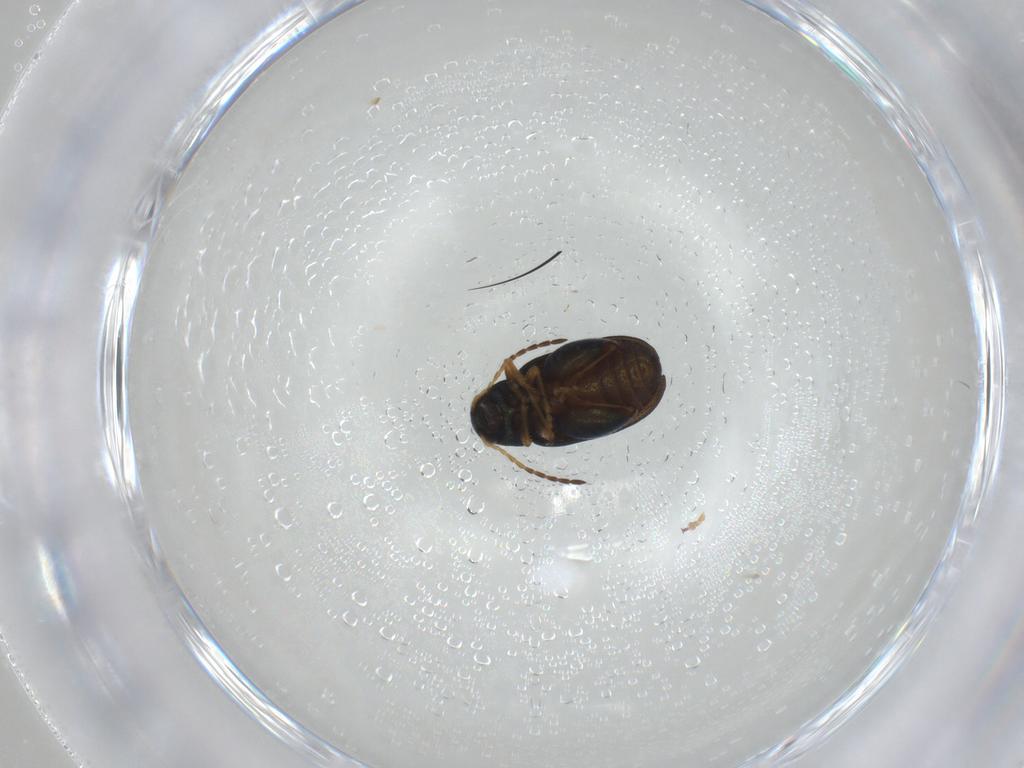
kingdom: Animalia
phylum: Arthropoda
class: Insecta
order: Coleoptera
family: Chrysomelidae
